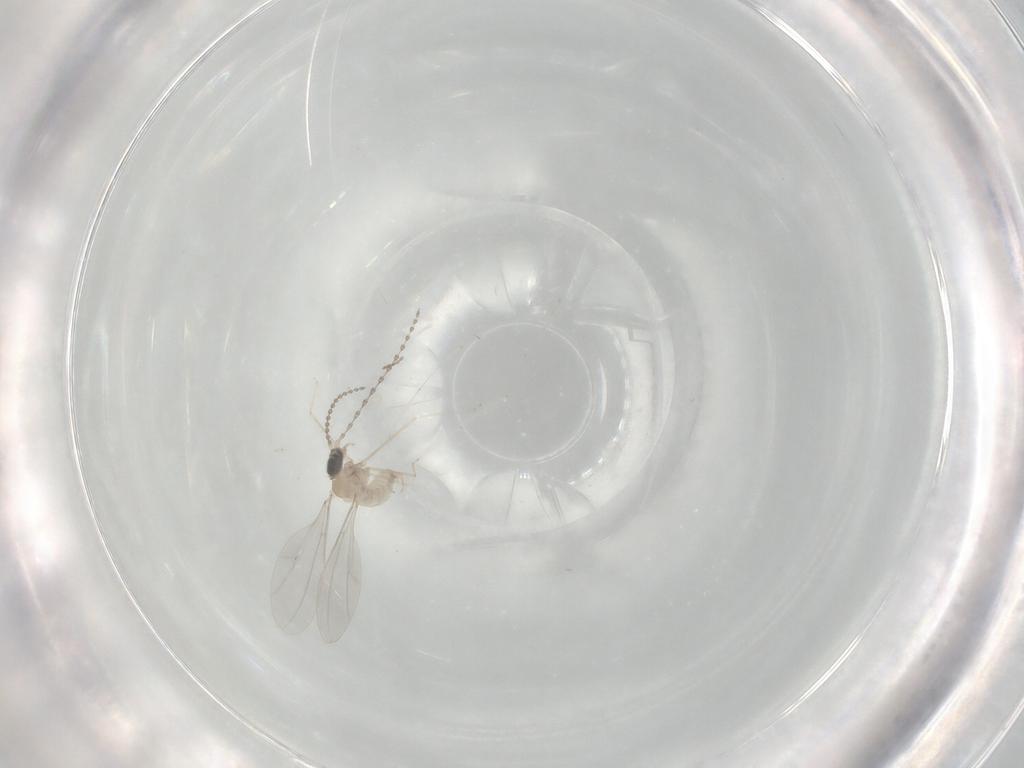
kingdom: Animalia
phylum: Arthropoda
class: Insecta
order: Diptera
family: Cecidomyiidae
